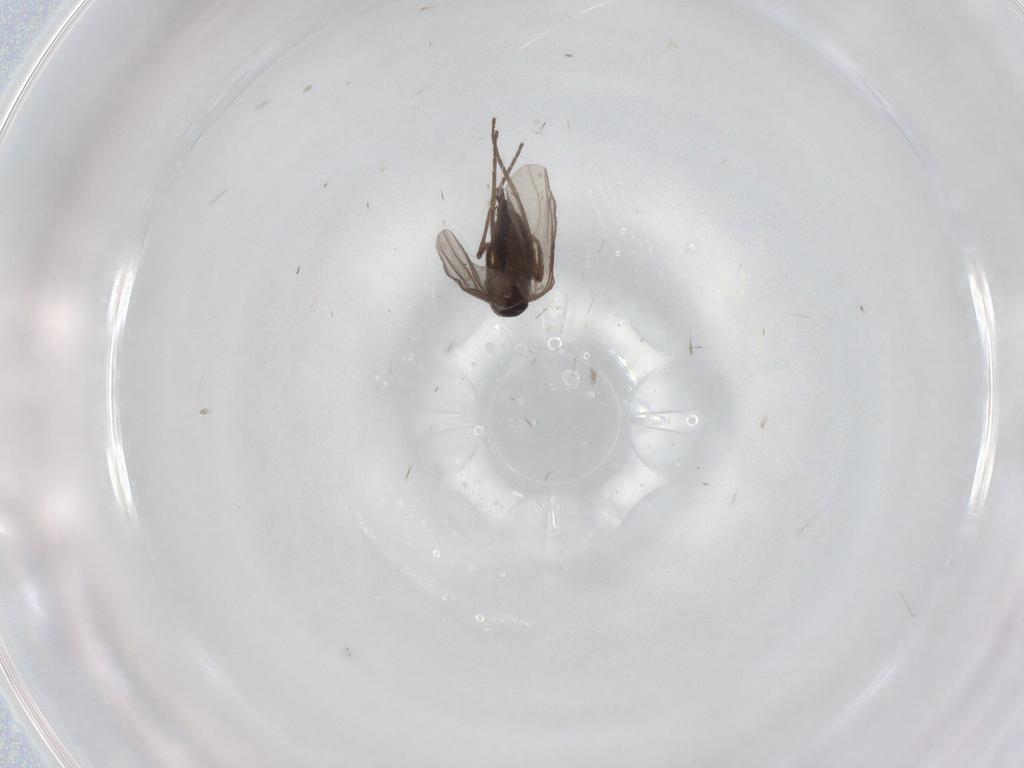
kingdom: Animalia
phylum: Arthropoda
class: Insecta
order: Diptera
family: Sciaridae
